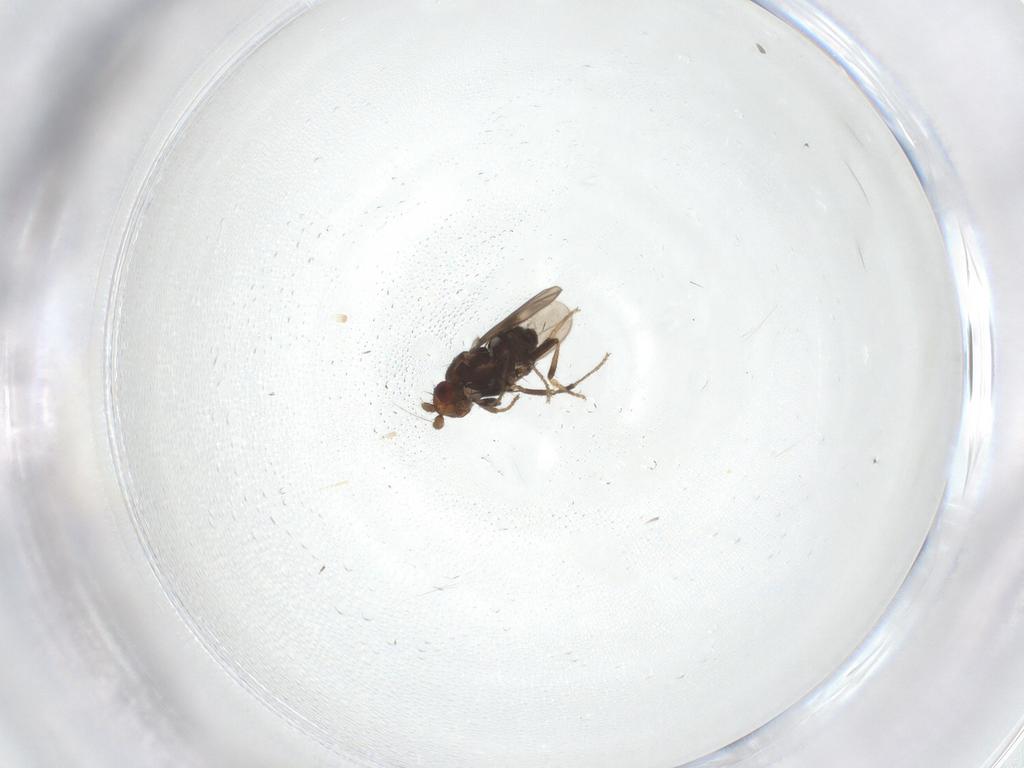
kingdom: Animalia
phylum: Arthropoda
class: Insecta
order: Diptera
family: Sphaeroceridae
